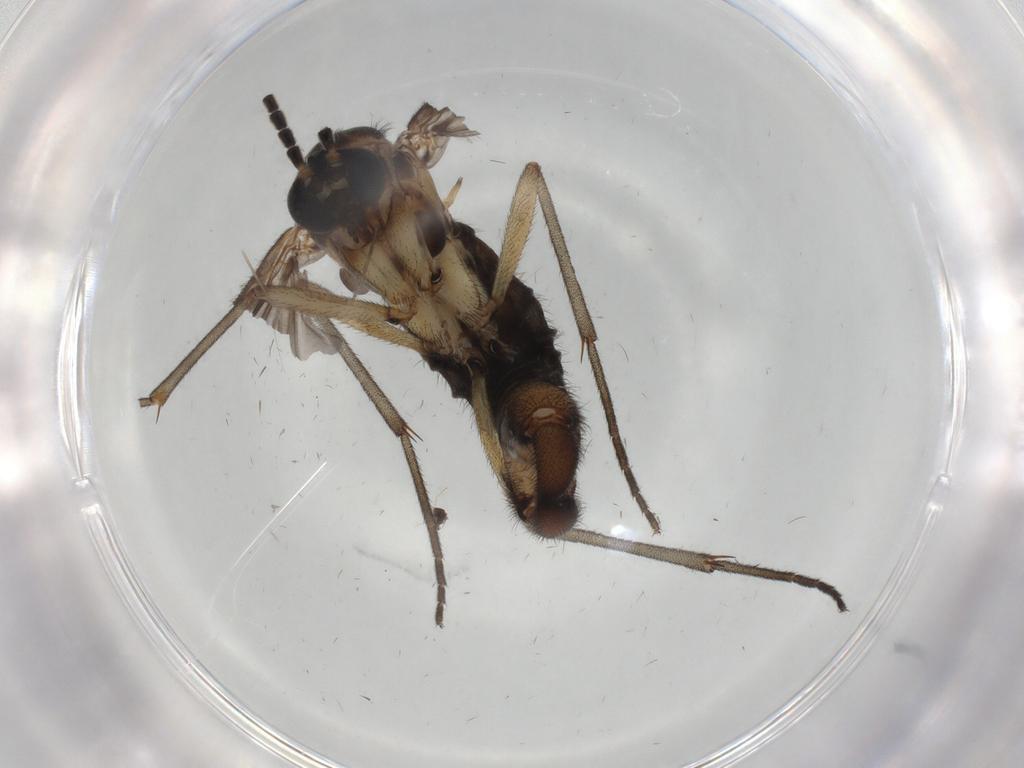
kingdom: Animalia
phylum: Arthropoda
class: Insecta
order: Diptera
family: Sciaridae
